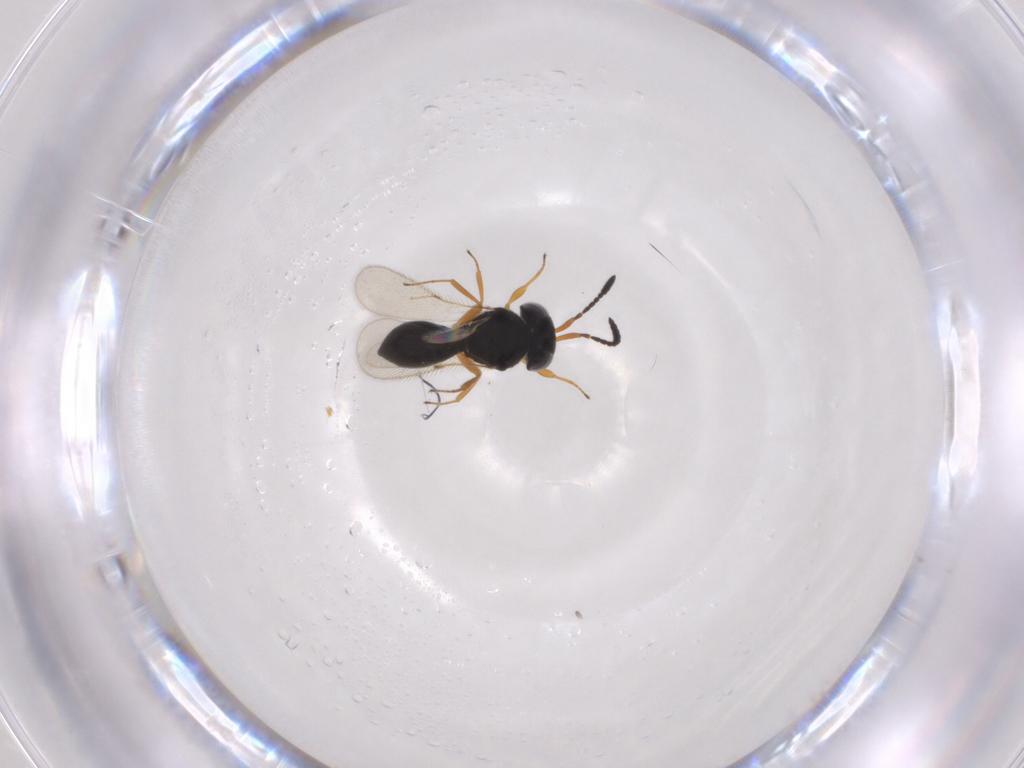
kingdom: Animalia
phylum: Arthropoda
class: Insecta
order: Hymenoptera
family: Scelionidae
